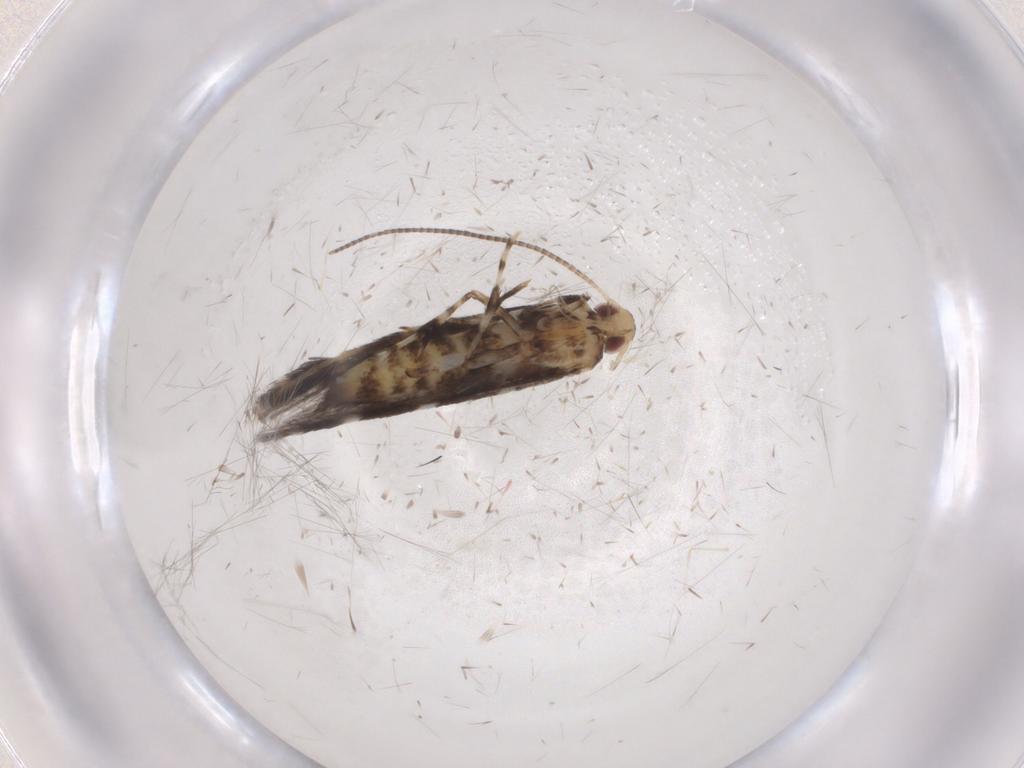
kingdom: Animalia
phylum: Arthropoda
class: Insecta
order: Lepidoptera
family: Gracillariidae
